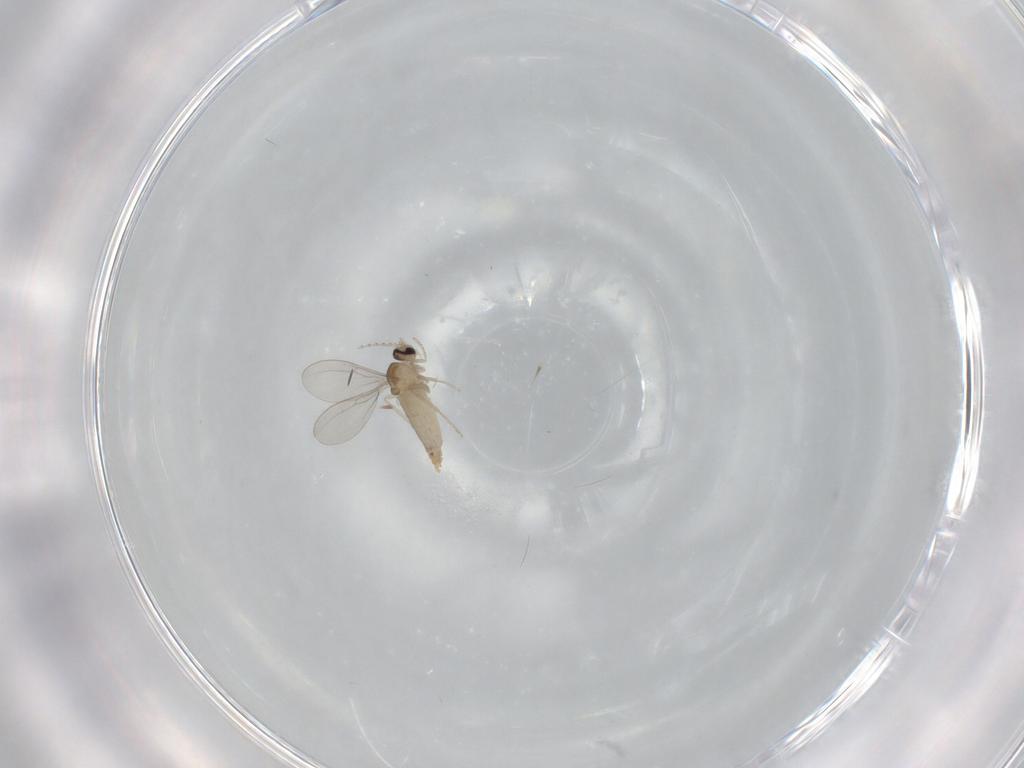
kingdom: Animalia
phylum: Arthropoda
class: Insecta
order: Diptera
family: Cecidomyiidae
